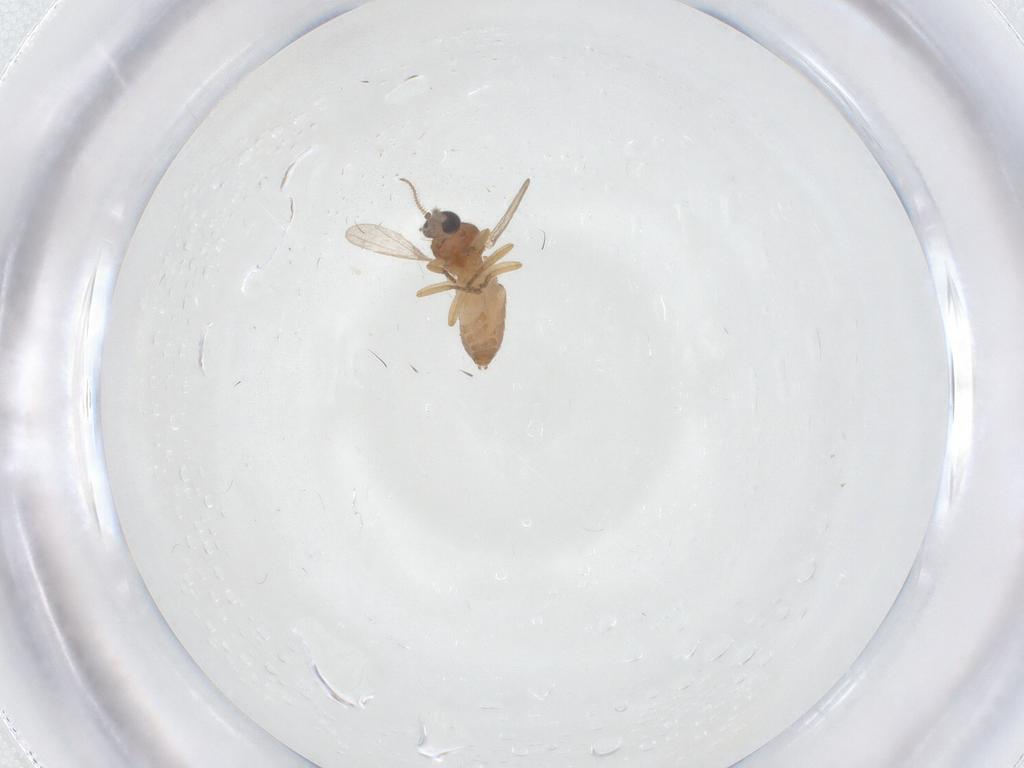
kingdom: Animalia
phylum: Arthropoda
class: Insecta
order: Diptera
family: Ceratopogonidae
